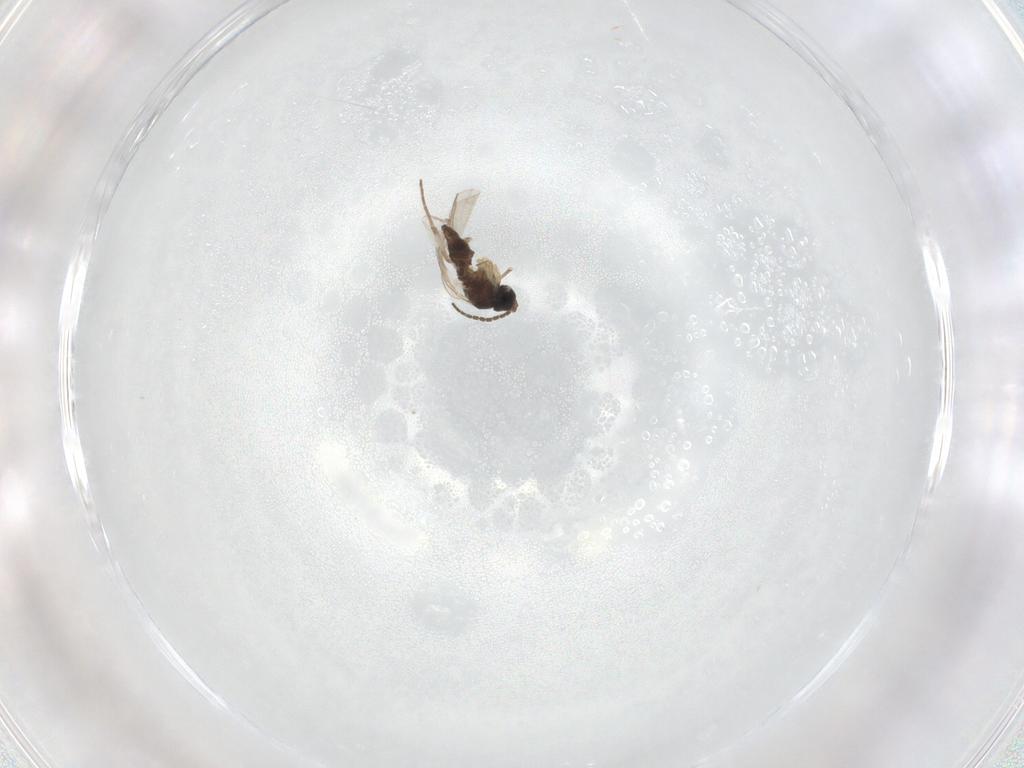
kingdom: Animalia
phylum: Arthropoda
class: Insecta
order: Diptera
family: Sciaridae
